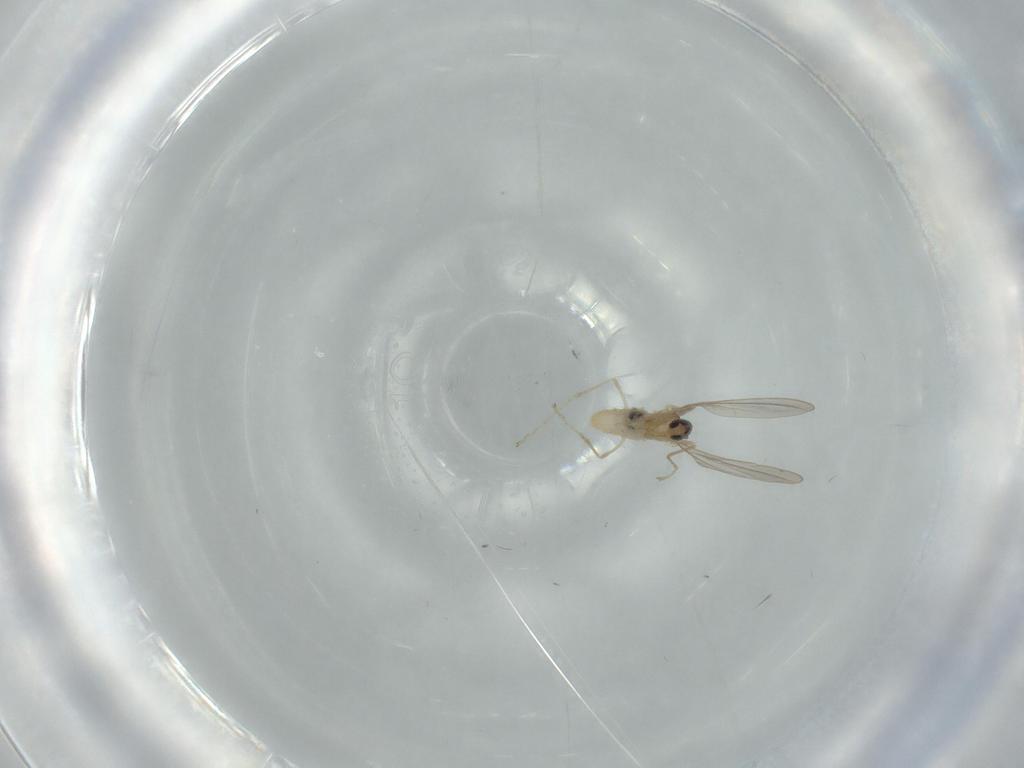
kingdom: Animalia
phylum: Arthropoda
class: Insecta
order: Diptera
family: Cecidomyiidae
